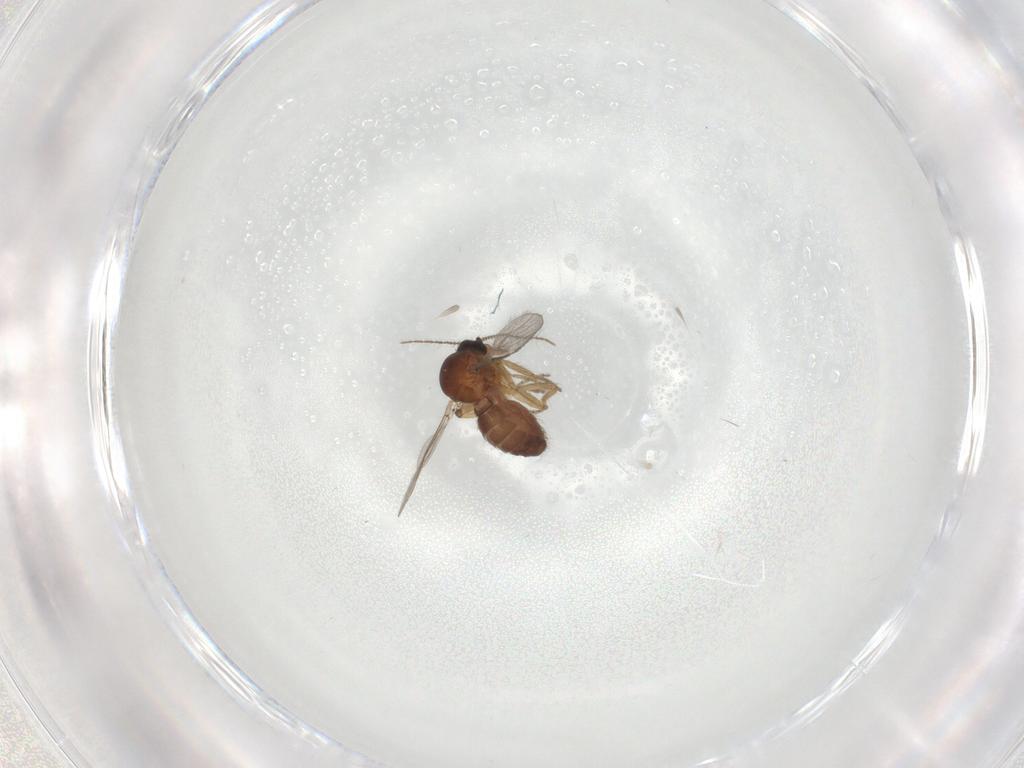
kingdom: Animalia
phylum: Arthropoda
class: Insecta
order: Diptera
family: Ceratopogonidae
